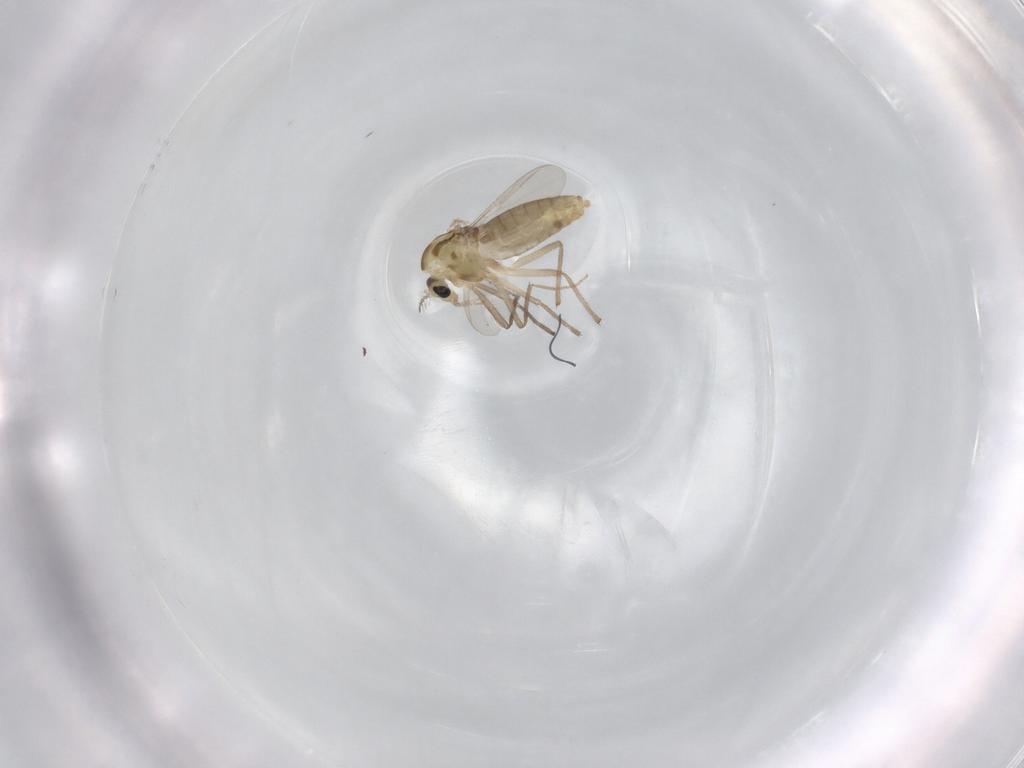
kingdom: Animalia
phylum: Arthropoda
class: Insecta
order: Diptera
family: Chironomidae
